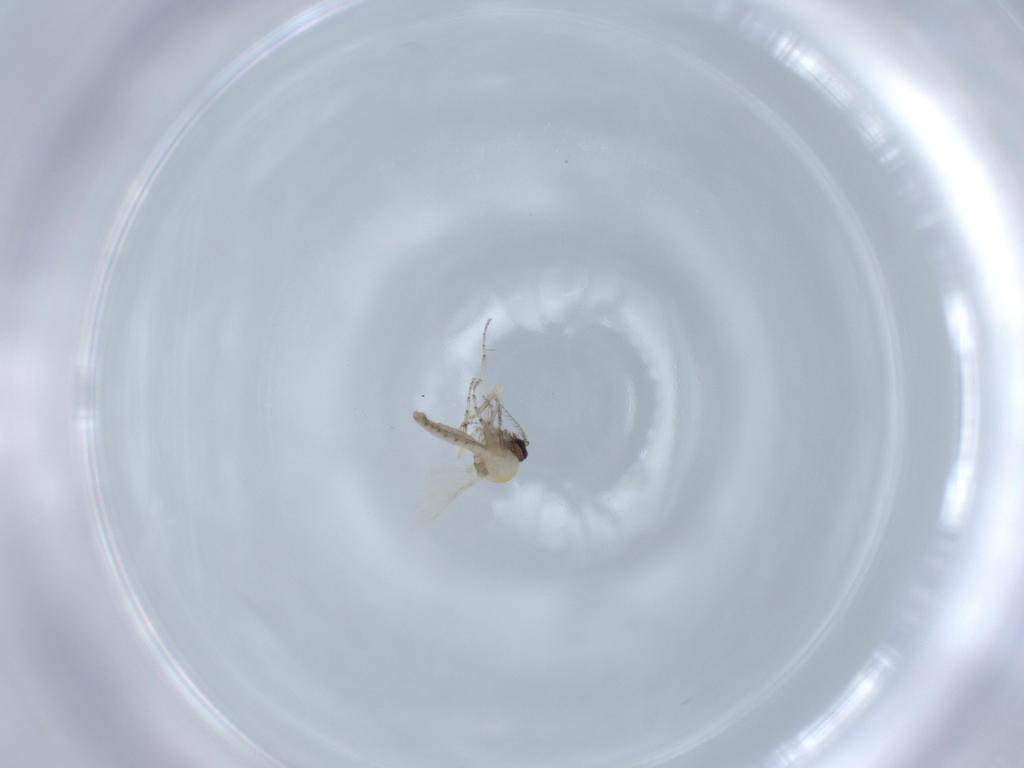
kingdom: Animalia
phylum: Arthropoda
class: Insecta
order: Diptera
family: Ceratopogonidae
